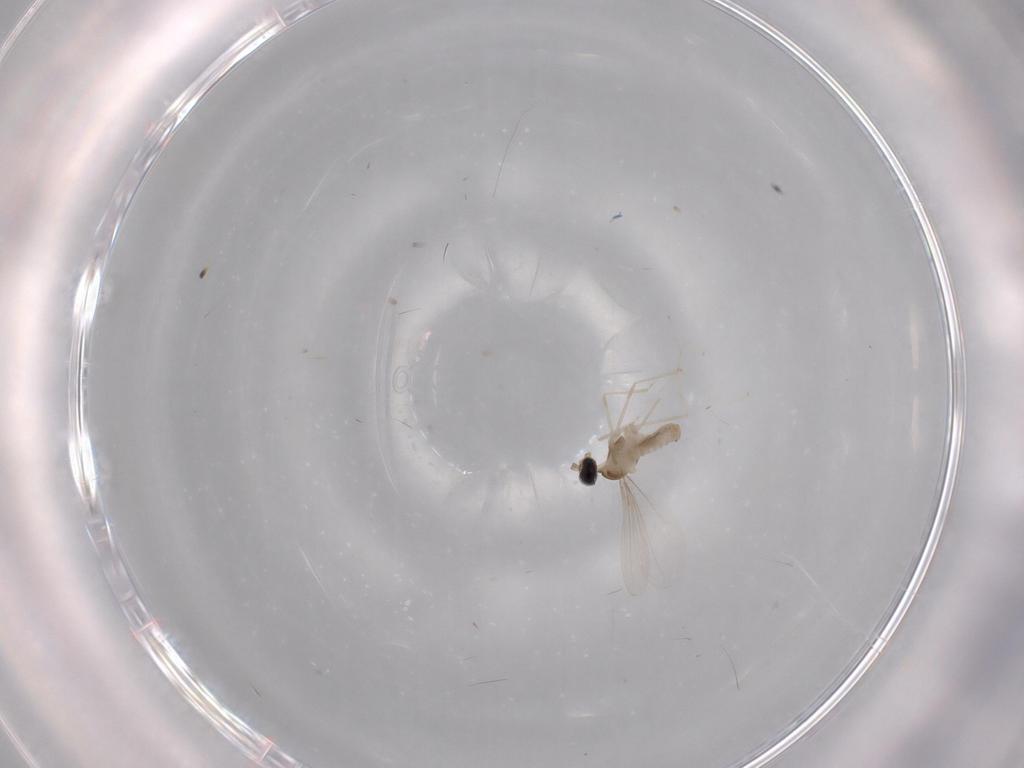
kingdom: Animalia
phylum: Arthropoda
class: Insecta
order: Diptera
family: Cecidomyiidae
